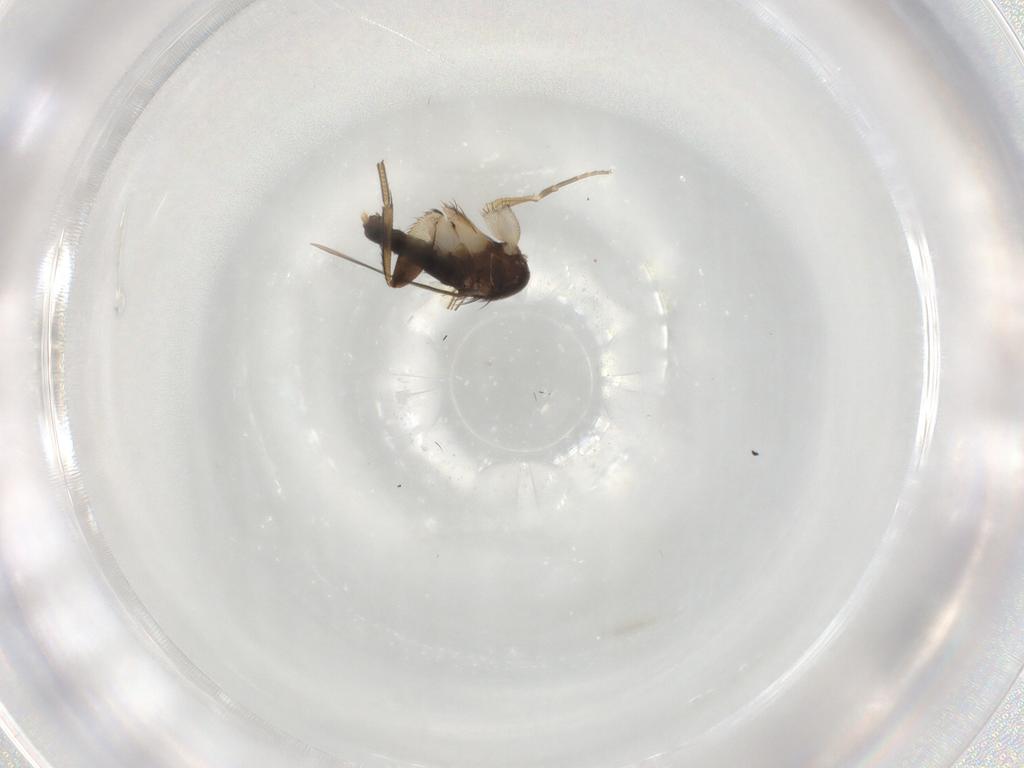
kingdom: Animalia
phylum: Arthropoda
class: Insecta
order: Diptera
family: Phoridae
